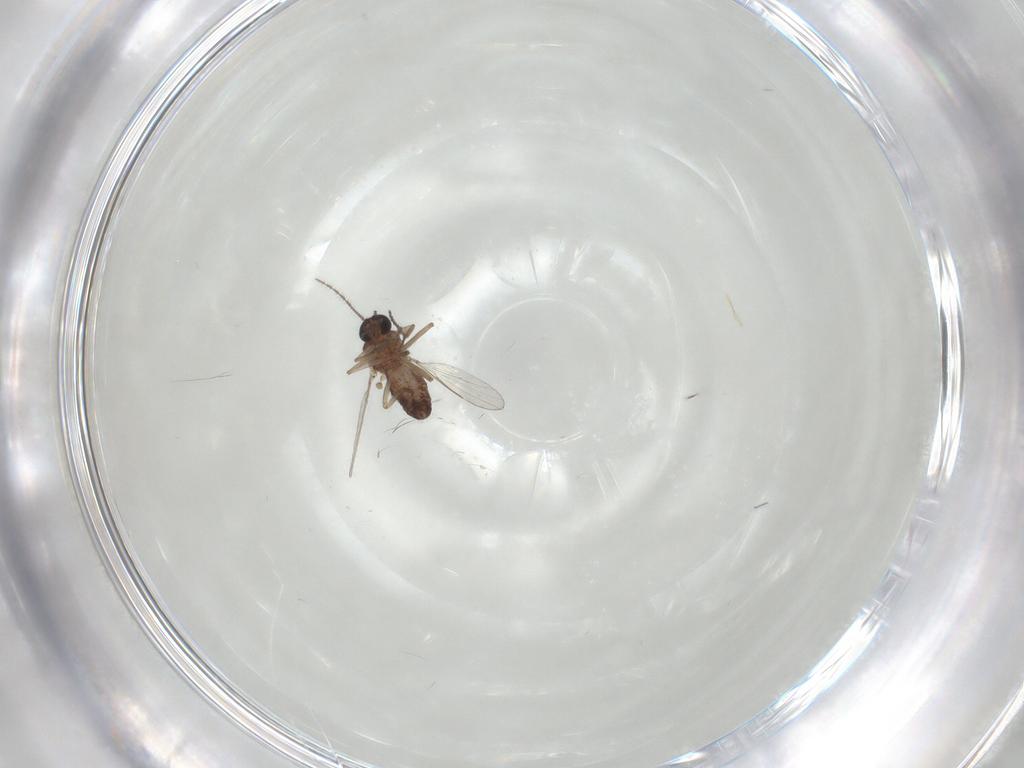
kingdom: Animalia
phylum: Arthropoda
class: Insecta
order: Diptera
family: Ceratopogonidae
